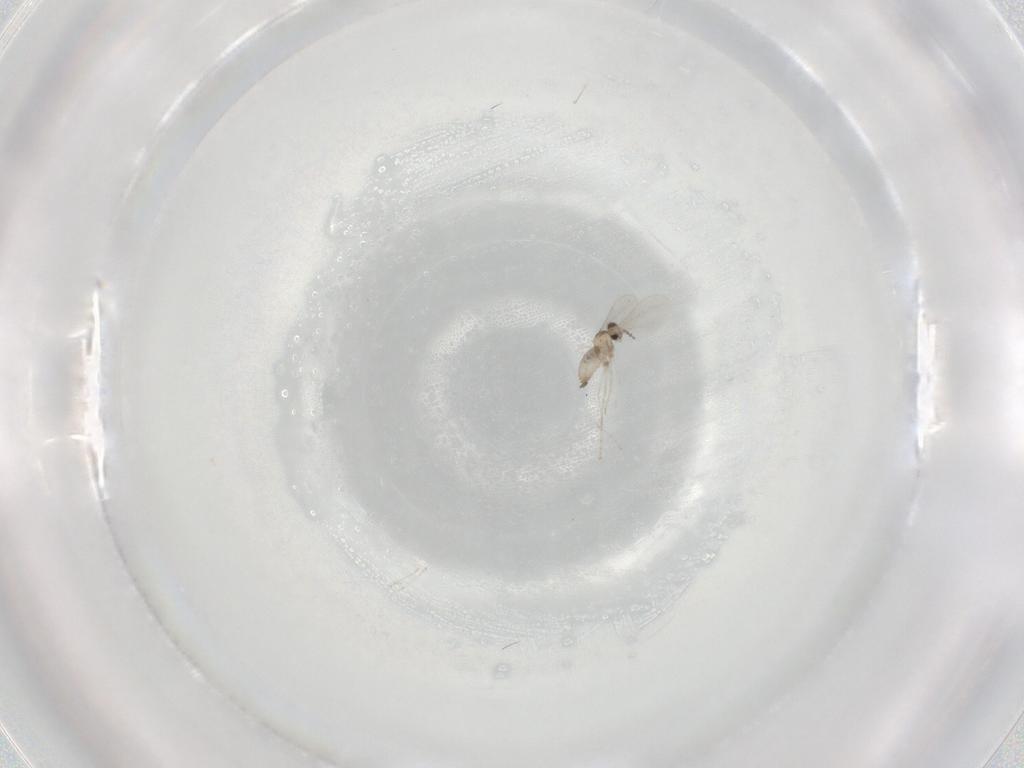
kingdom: Animalia
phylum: Arthropoda
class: Insecta
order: Diptera
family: Cecidomyiidae
